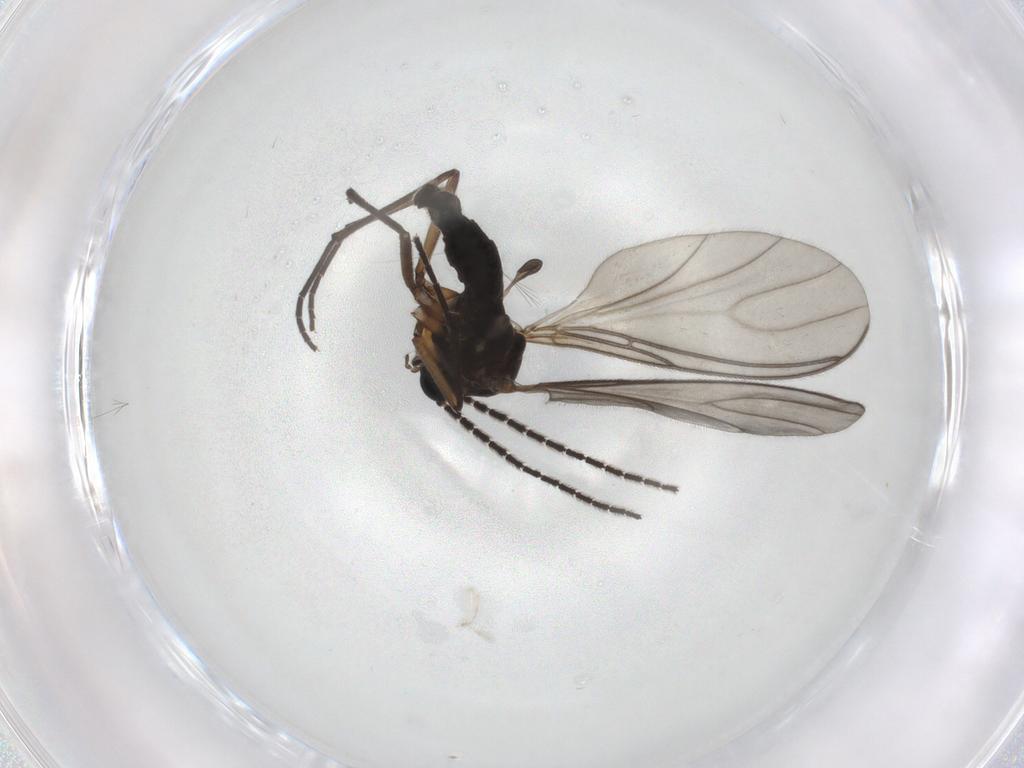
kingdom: Animalia
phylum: Arthropoda
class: Insecta
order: Diptera
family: Sciaridae
